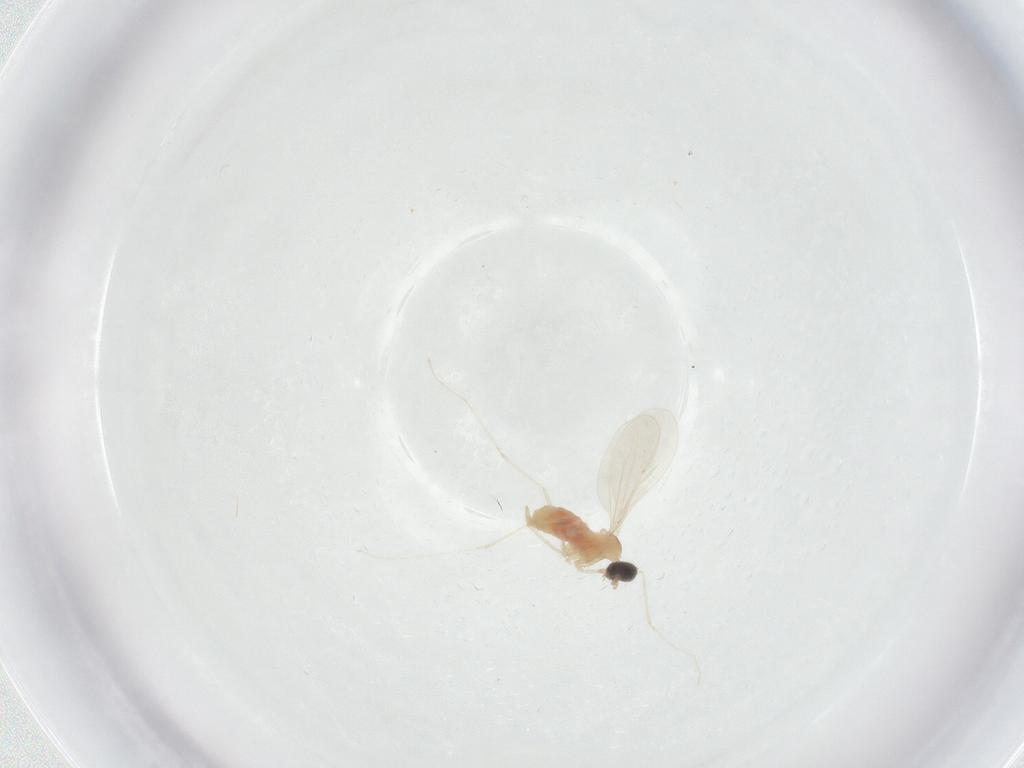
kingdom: Animalia
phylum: Arthropoda
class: Insecta
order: Diptera
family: Cecidomyiidae
